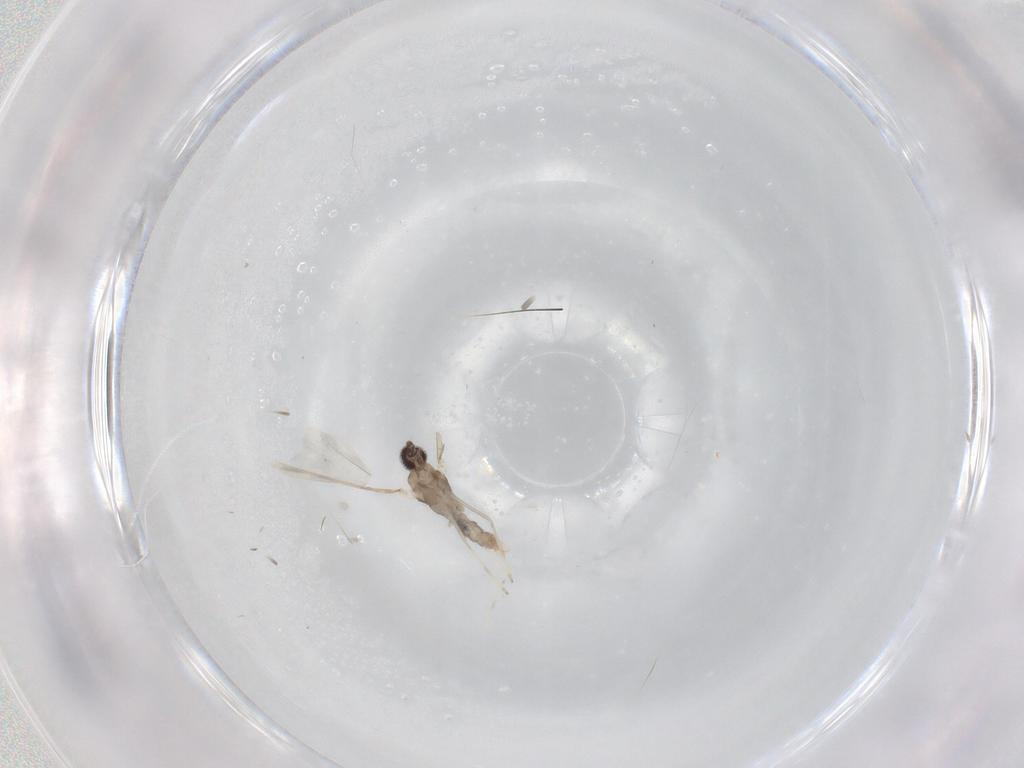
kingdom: Animalia
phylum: Arthropoda
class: Insecta
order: Diptera
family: Cecidomyiidae
